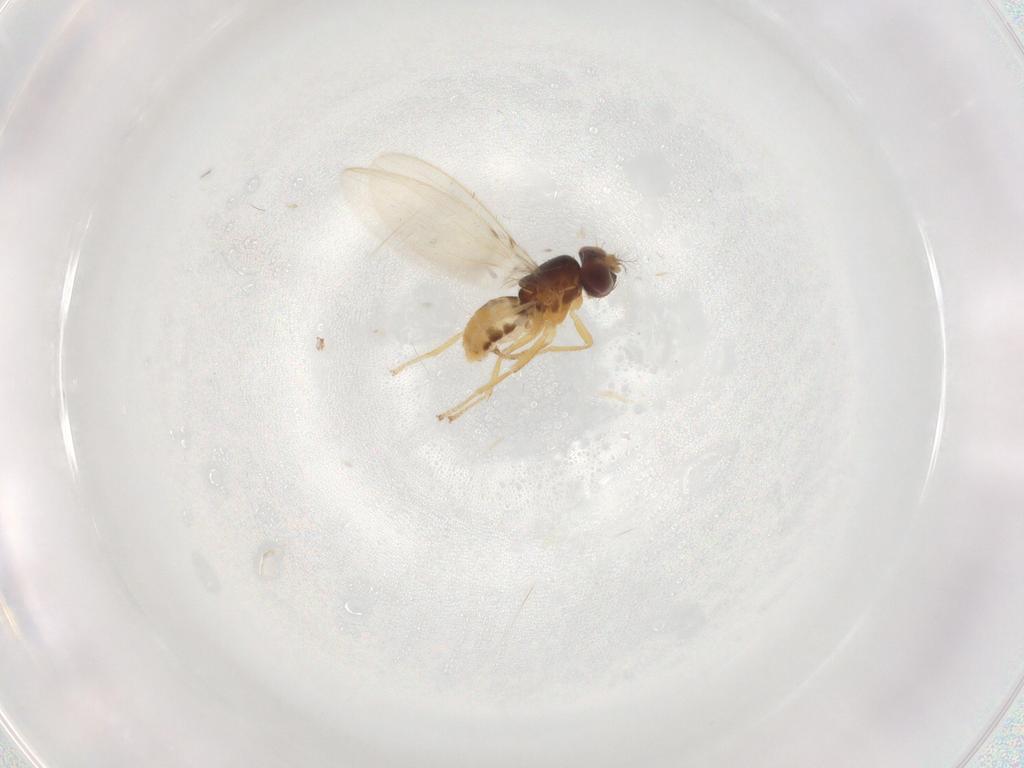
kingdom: Animalia
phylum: Arthropoda
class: Insecta
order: Diptera
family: Periscelididae
